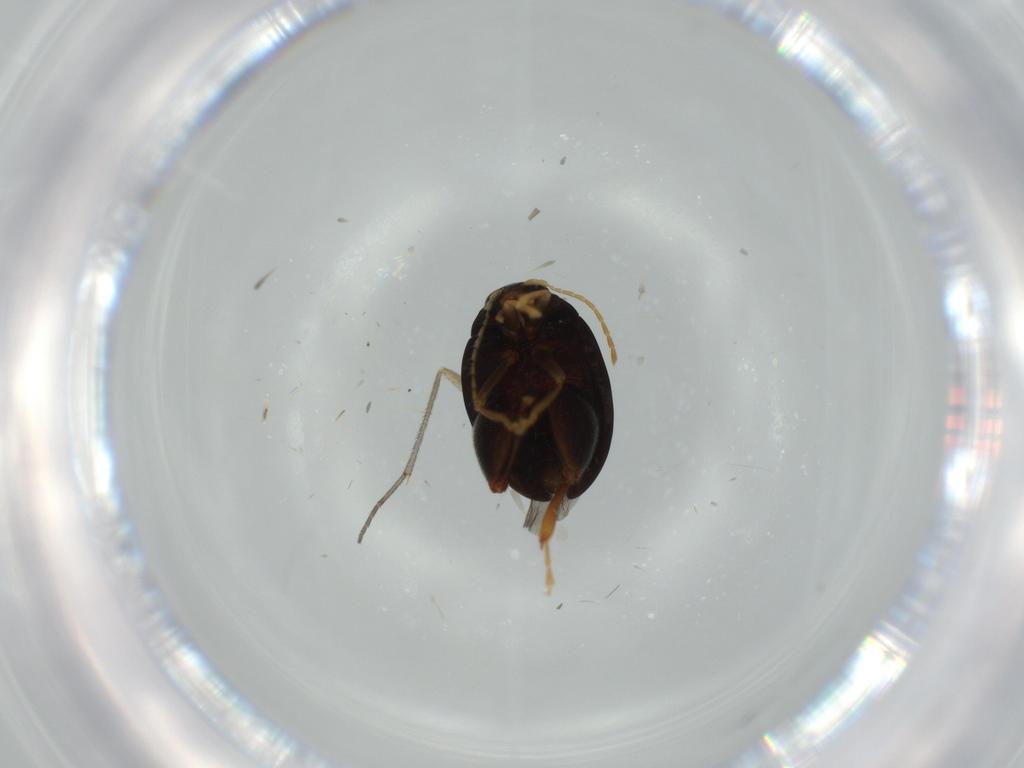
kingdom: Animalia
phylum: Arthropoda
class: Insecta
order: Coleoptera
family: Chrysomelidae
